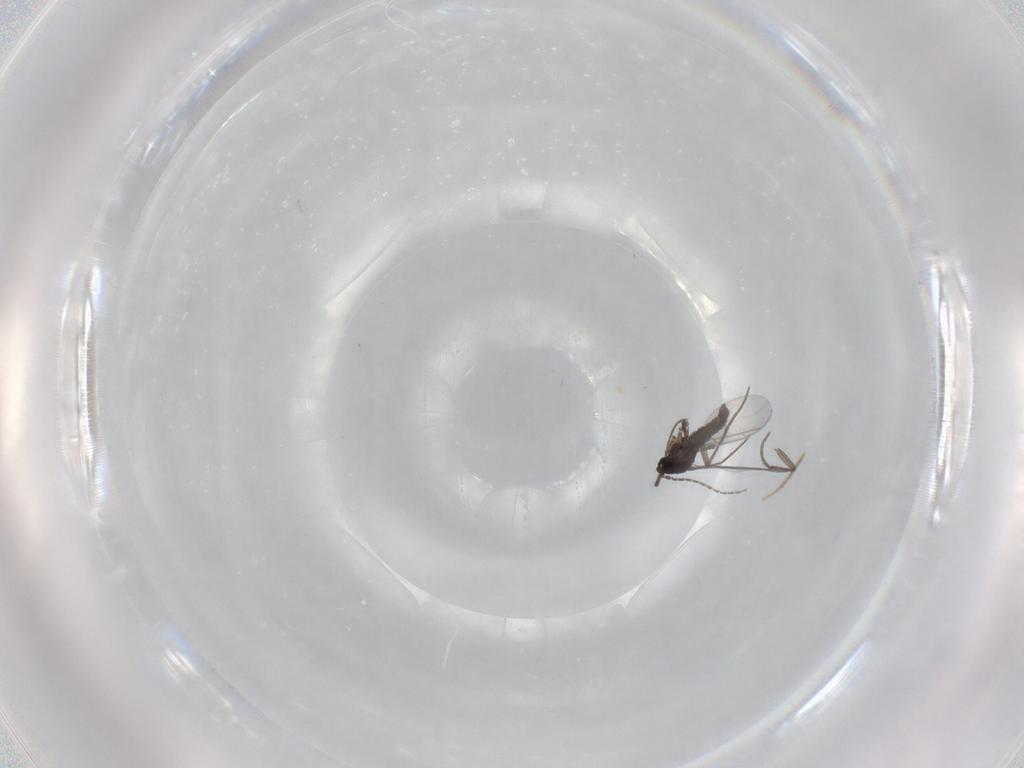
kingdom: Animalia
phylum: Arthropoda
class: Insecta
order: Diptera
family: Sciaridae
